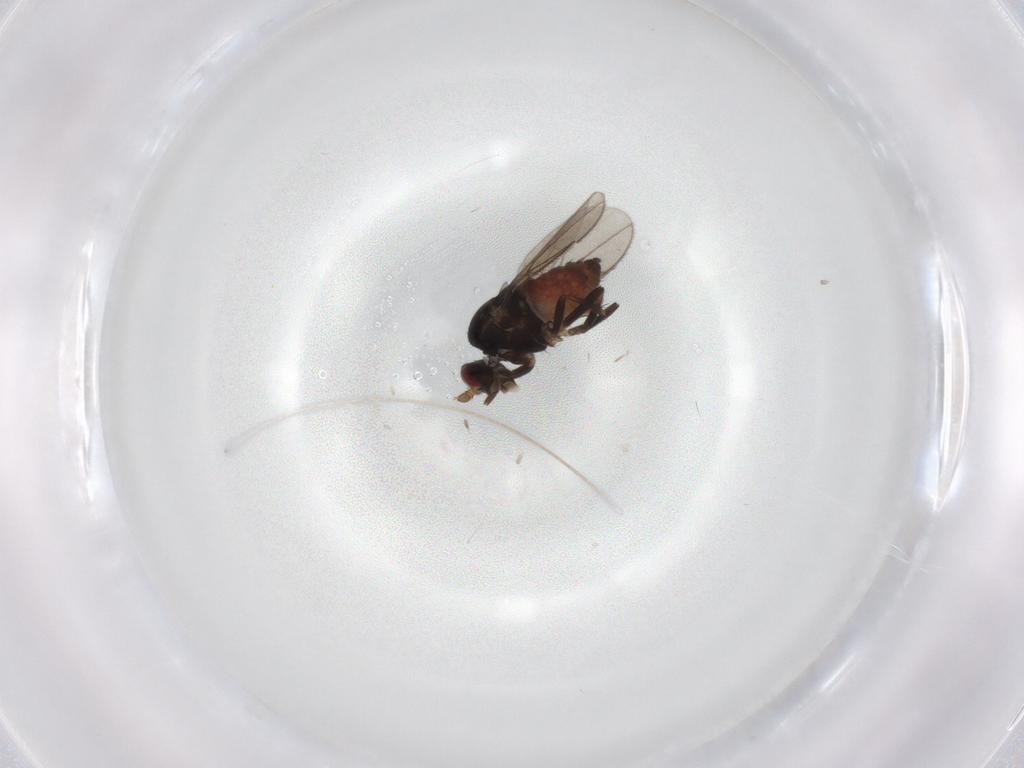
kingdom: Animalia
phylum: Arthropoda
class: Insecta
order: Diptera
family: Sphaeroceridae
